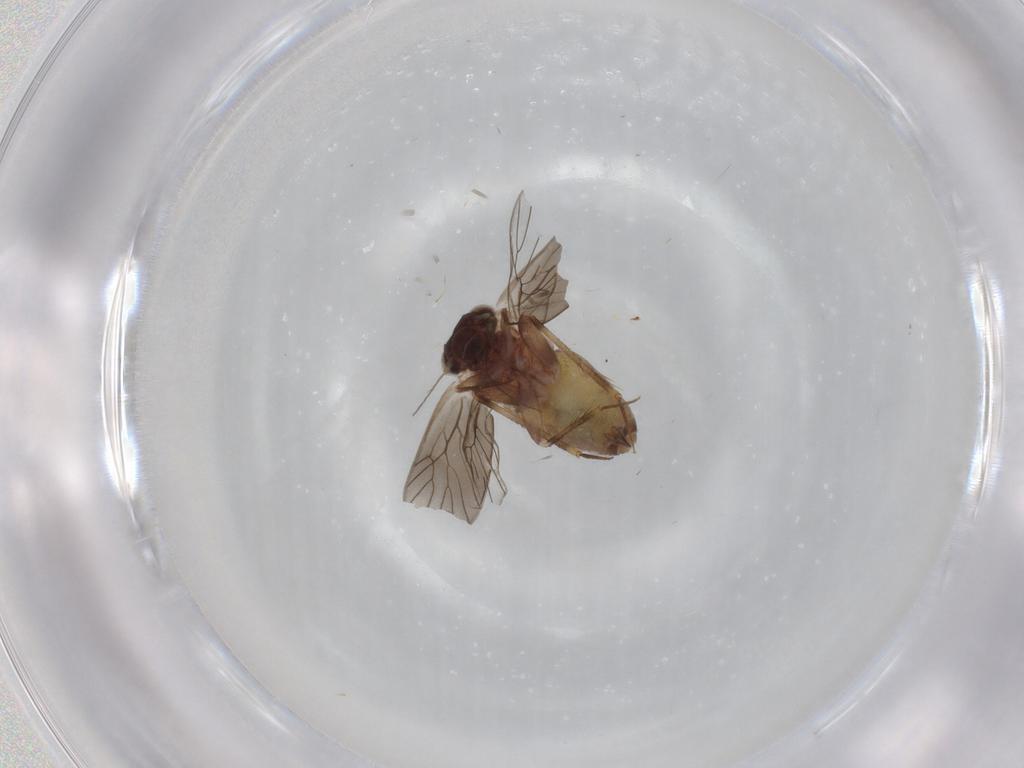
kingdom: Animalia
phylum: Arthropoda
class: Insecta
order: Psocodea
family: Lepidopsocidae
